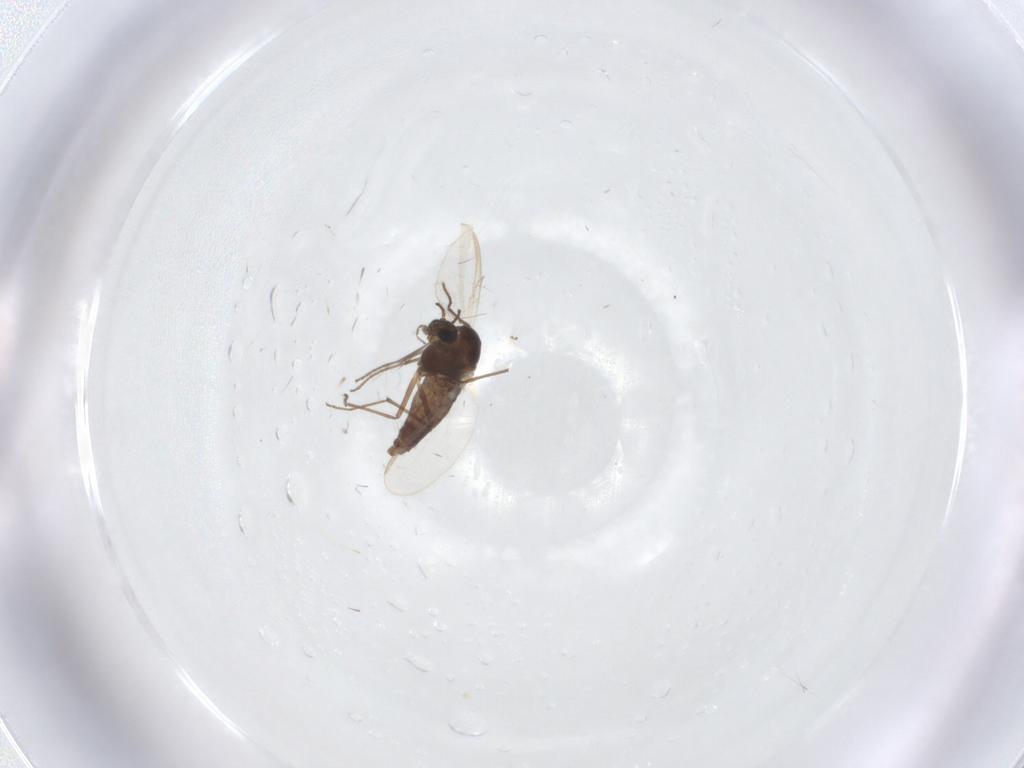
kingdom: Animalia
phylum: Arthropoda
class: Insecta
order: Diptera
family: Chironomidae
